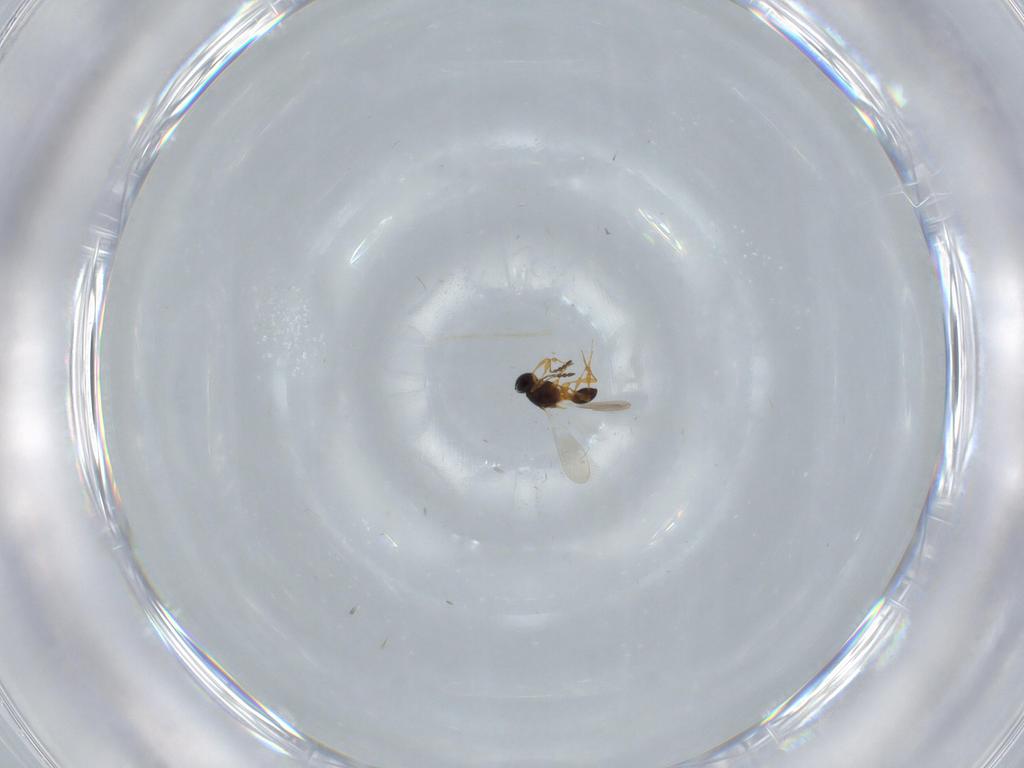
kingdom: Animalia
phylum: Arthropoda
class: Insecta
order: Hymenoptera
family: Platygastridae
